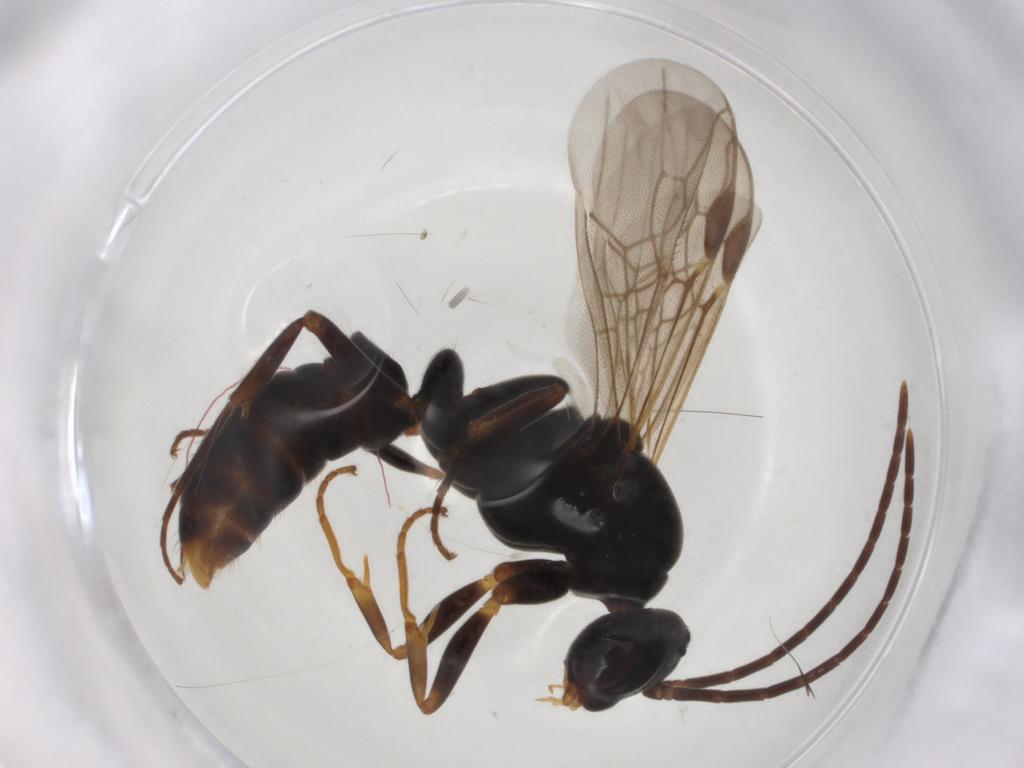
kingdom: Animalia
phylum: Arthropoda
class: Insecta
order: Hymenoptera
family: Formicidae
